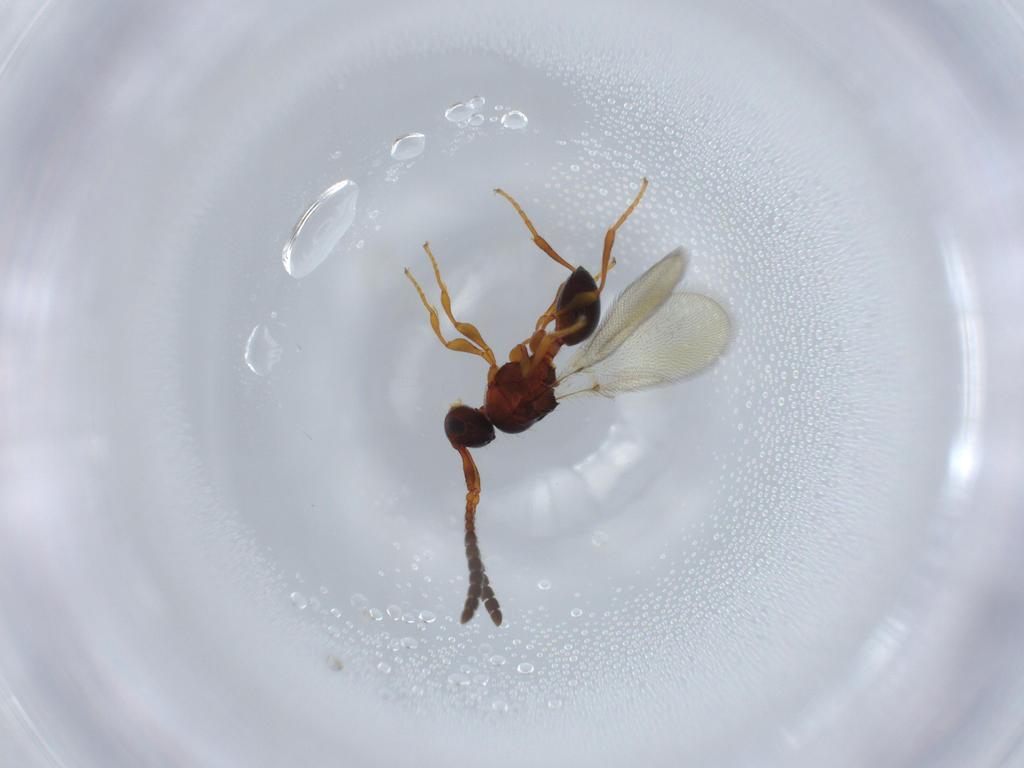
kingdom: Animalia
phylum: Arthropoda
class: Insecta
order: Hymenoptera
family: Diapriidae
